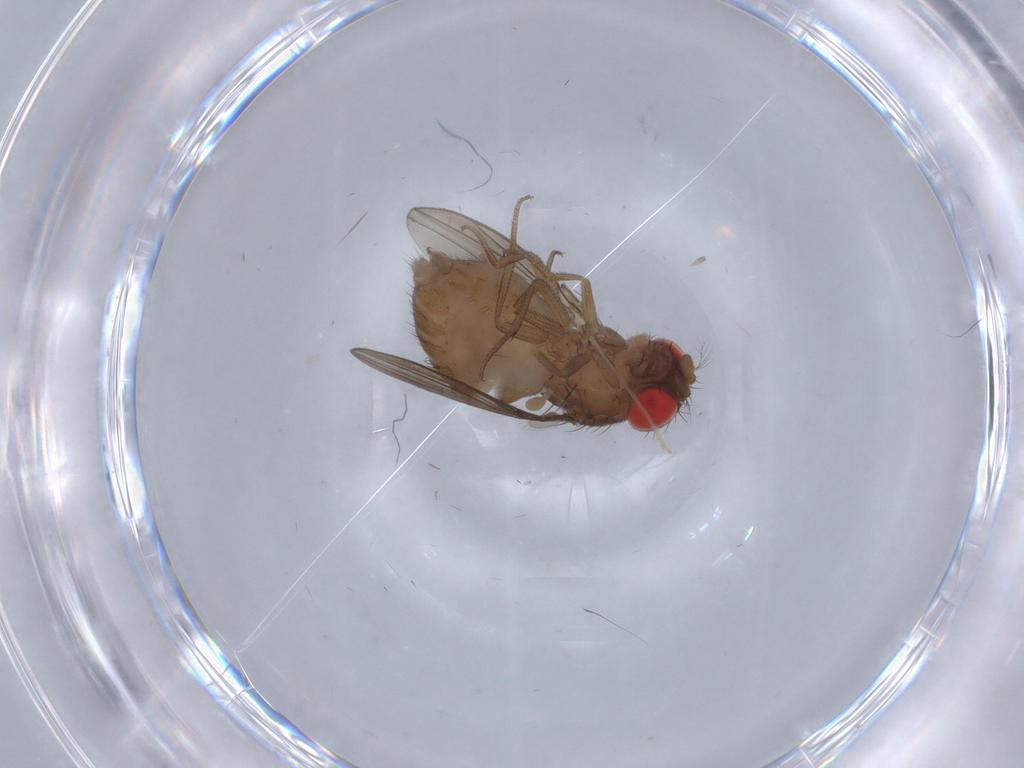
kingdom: Animalia
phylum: Arthropoda
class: Insecta
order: Diptera
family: Drosophilidae
